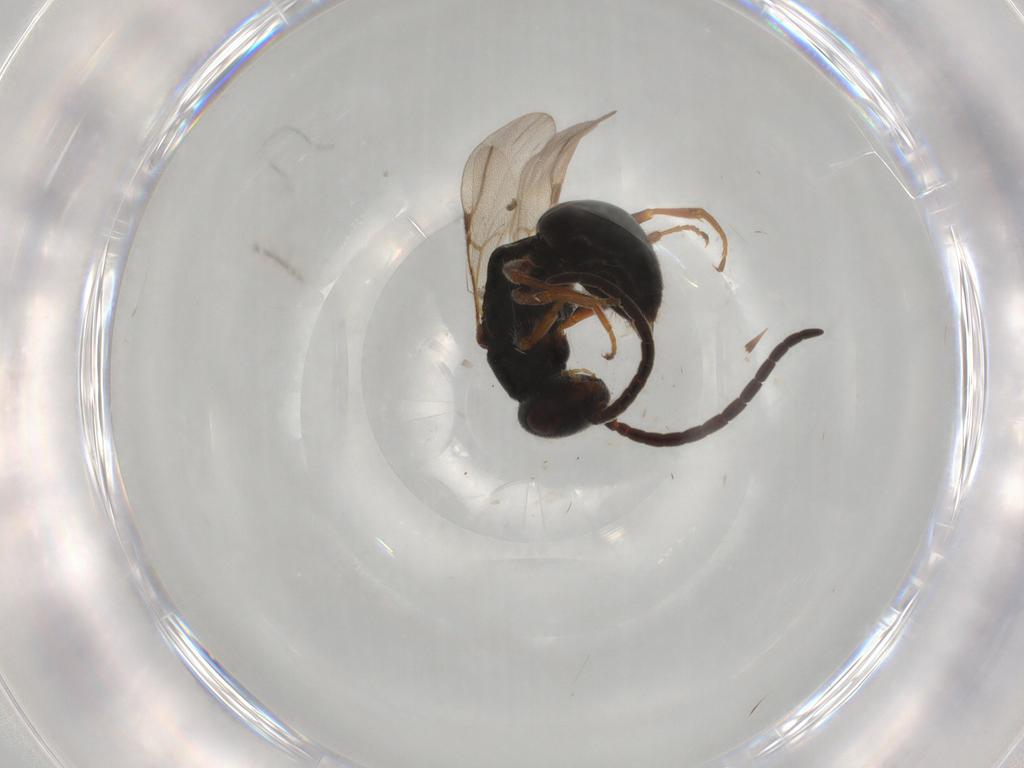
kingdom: Animalia
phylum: Arthropoda
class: Insecta
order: Hymenoptera
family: Bethylidae
